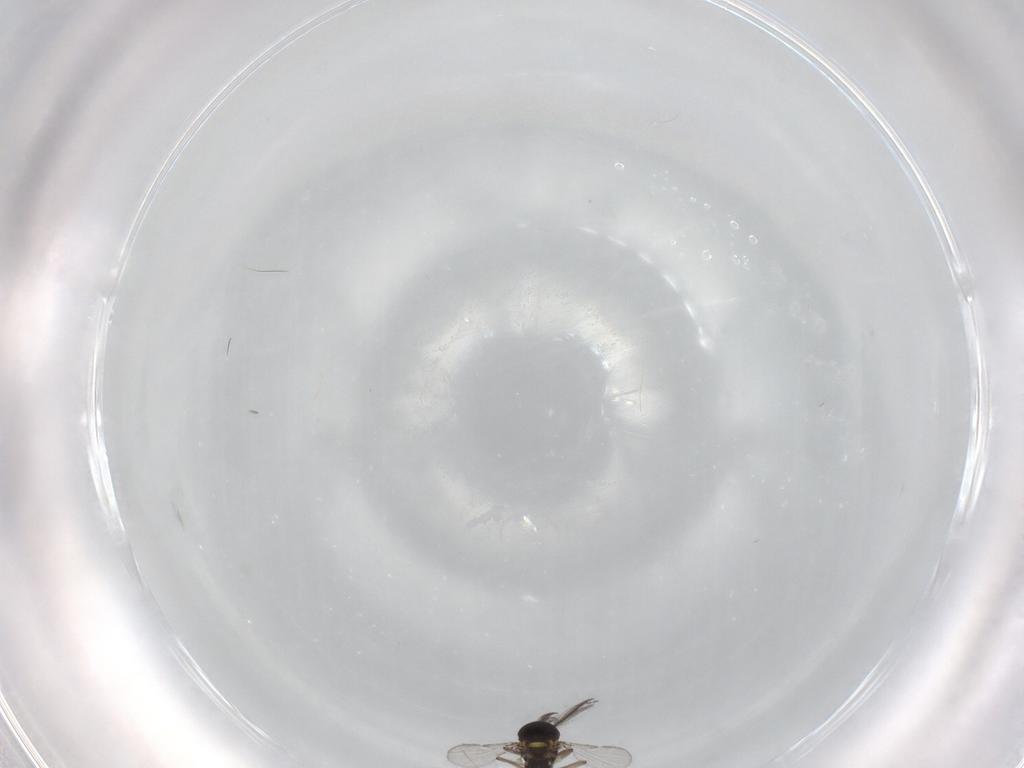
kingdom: Animalia
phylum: Arthropoda
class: Insecta
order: Diptera
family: Ceratopogonidae
